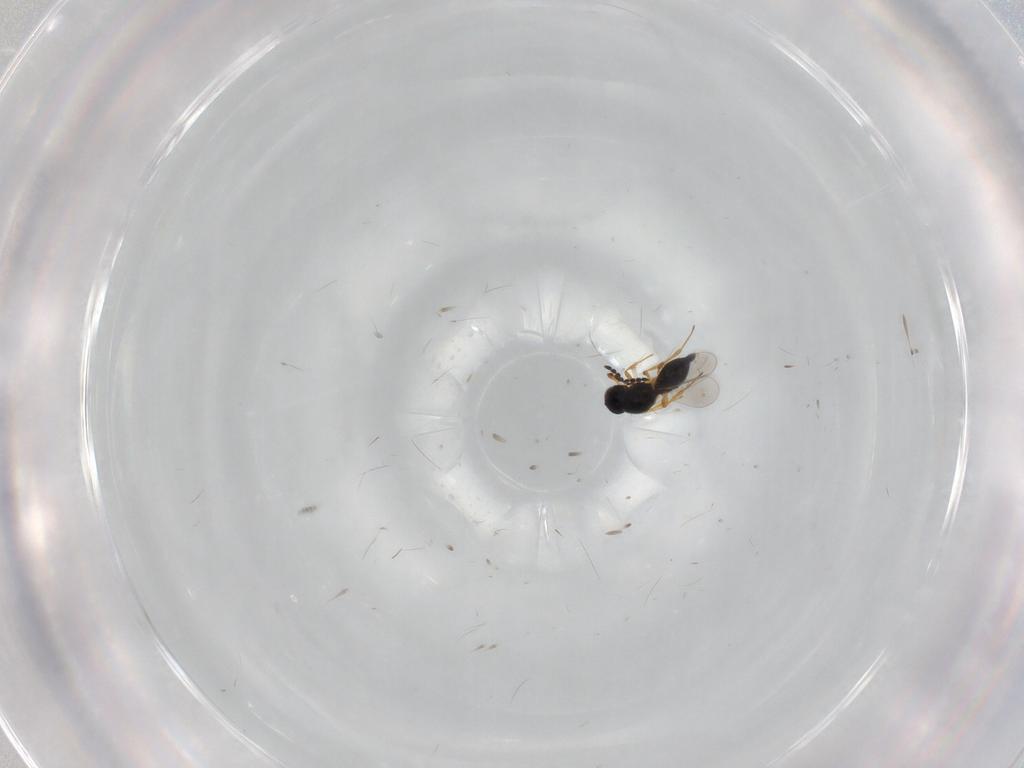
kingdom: Animalia
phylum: Arthropoda
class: Insecta
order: Hymenoptera
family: Platygastridae
